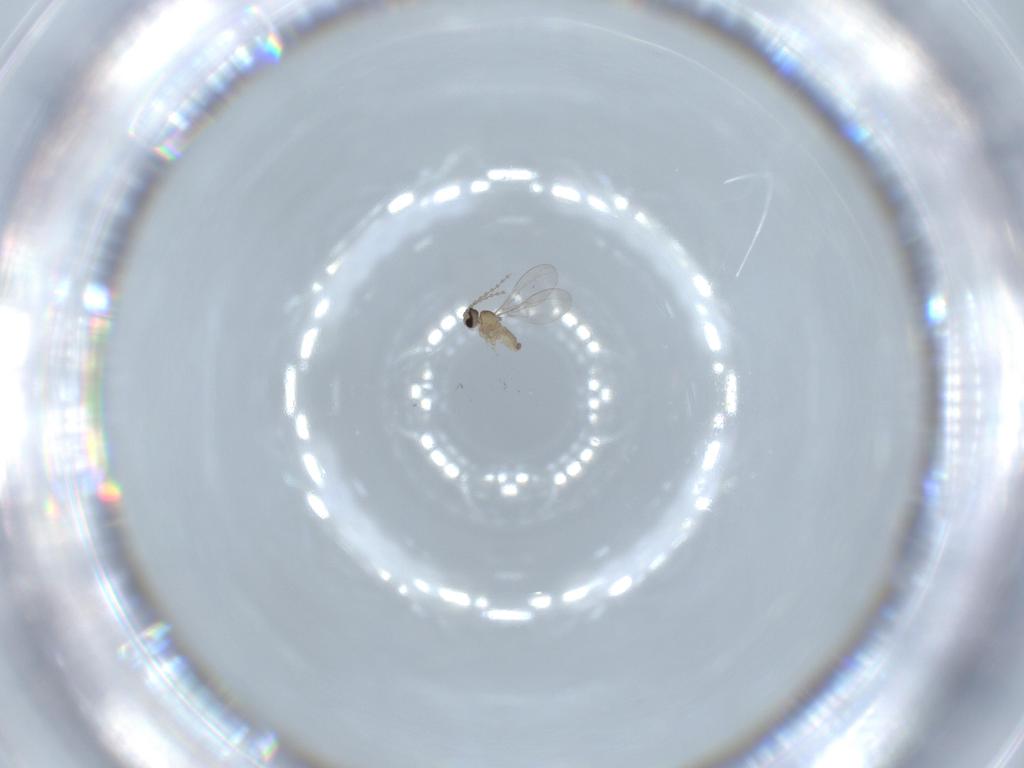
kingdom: Animalia
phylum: Arthropoda
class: Insecta
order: Diptera
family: Cecidomyiidae
